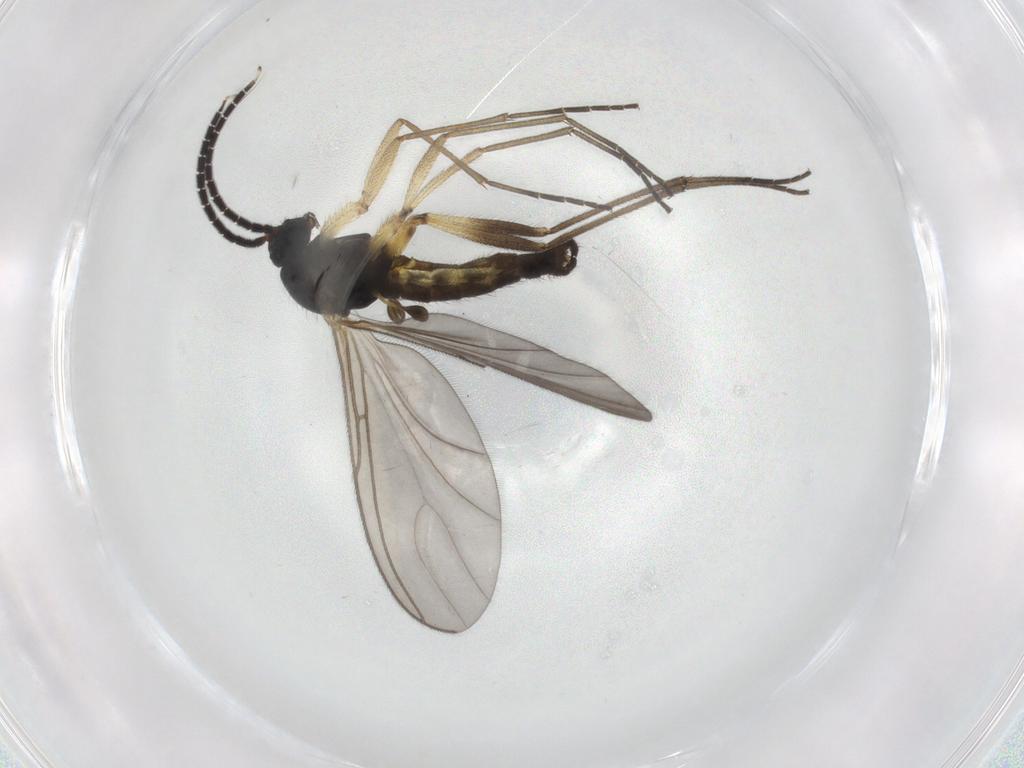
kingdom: Animalia
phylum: Arthropoda
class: Insecta
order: Diptera
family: Sciaridae
